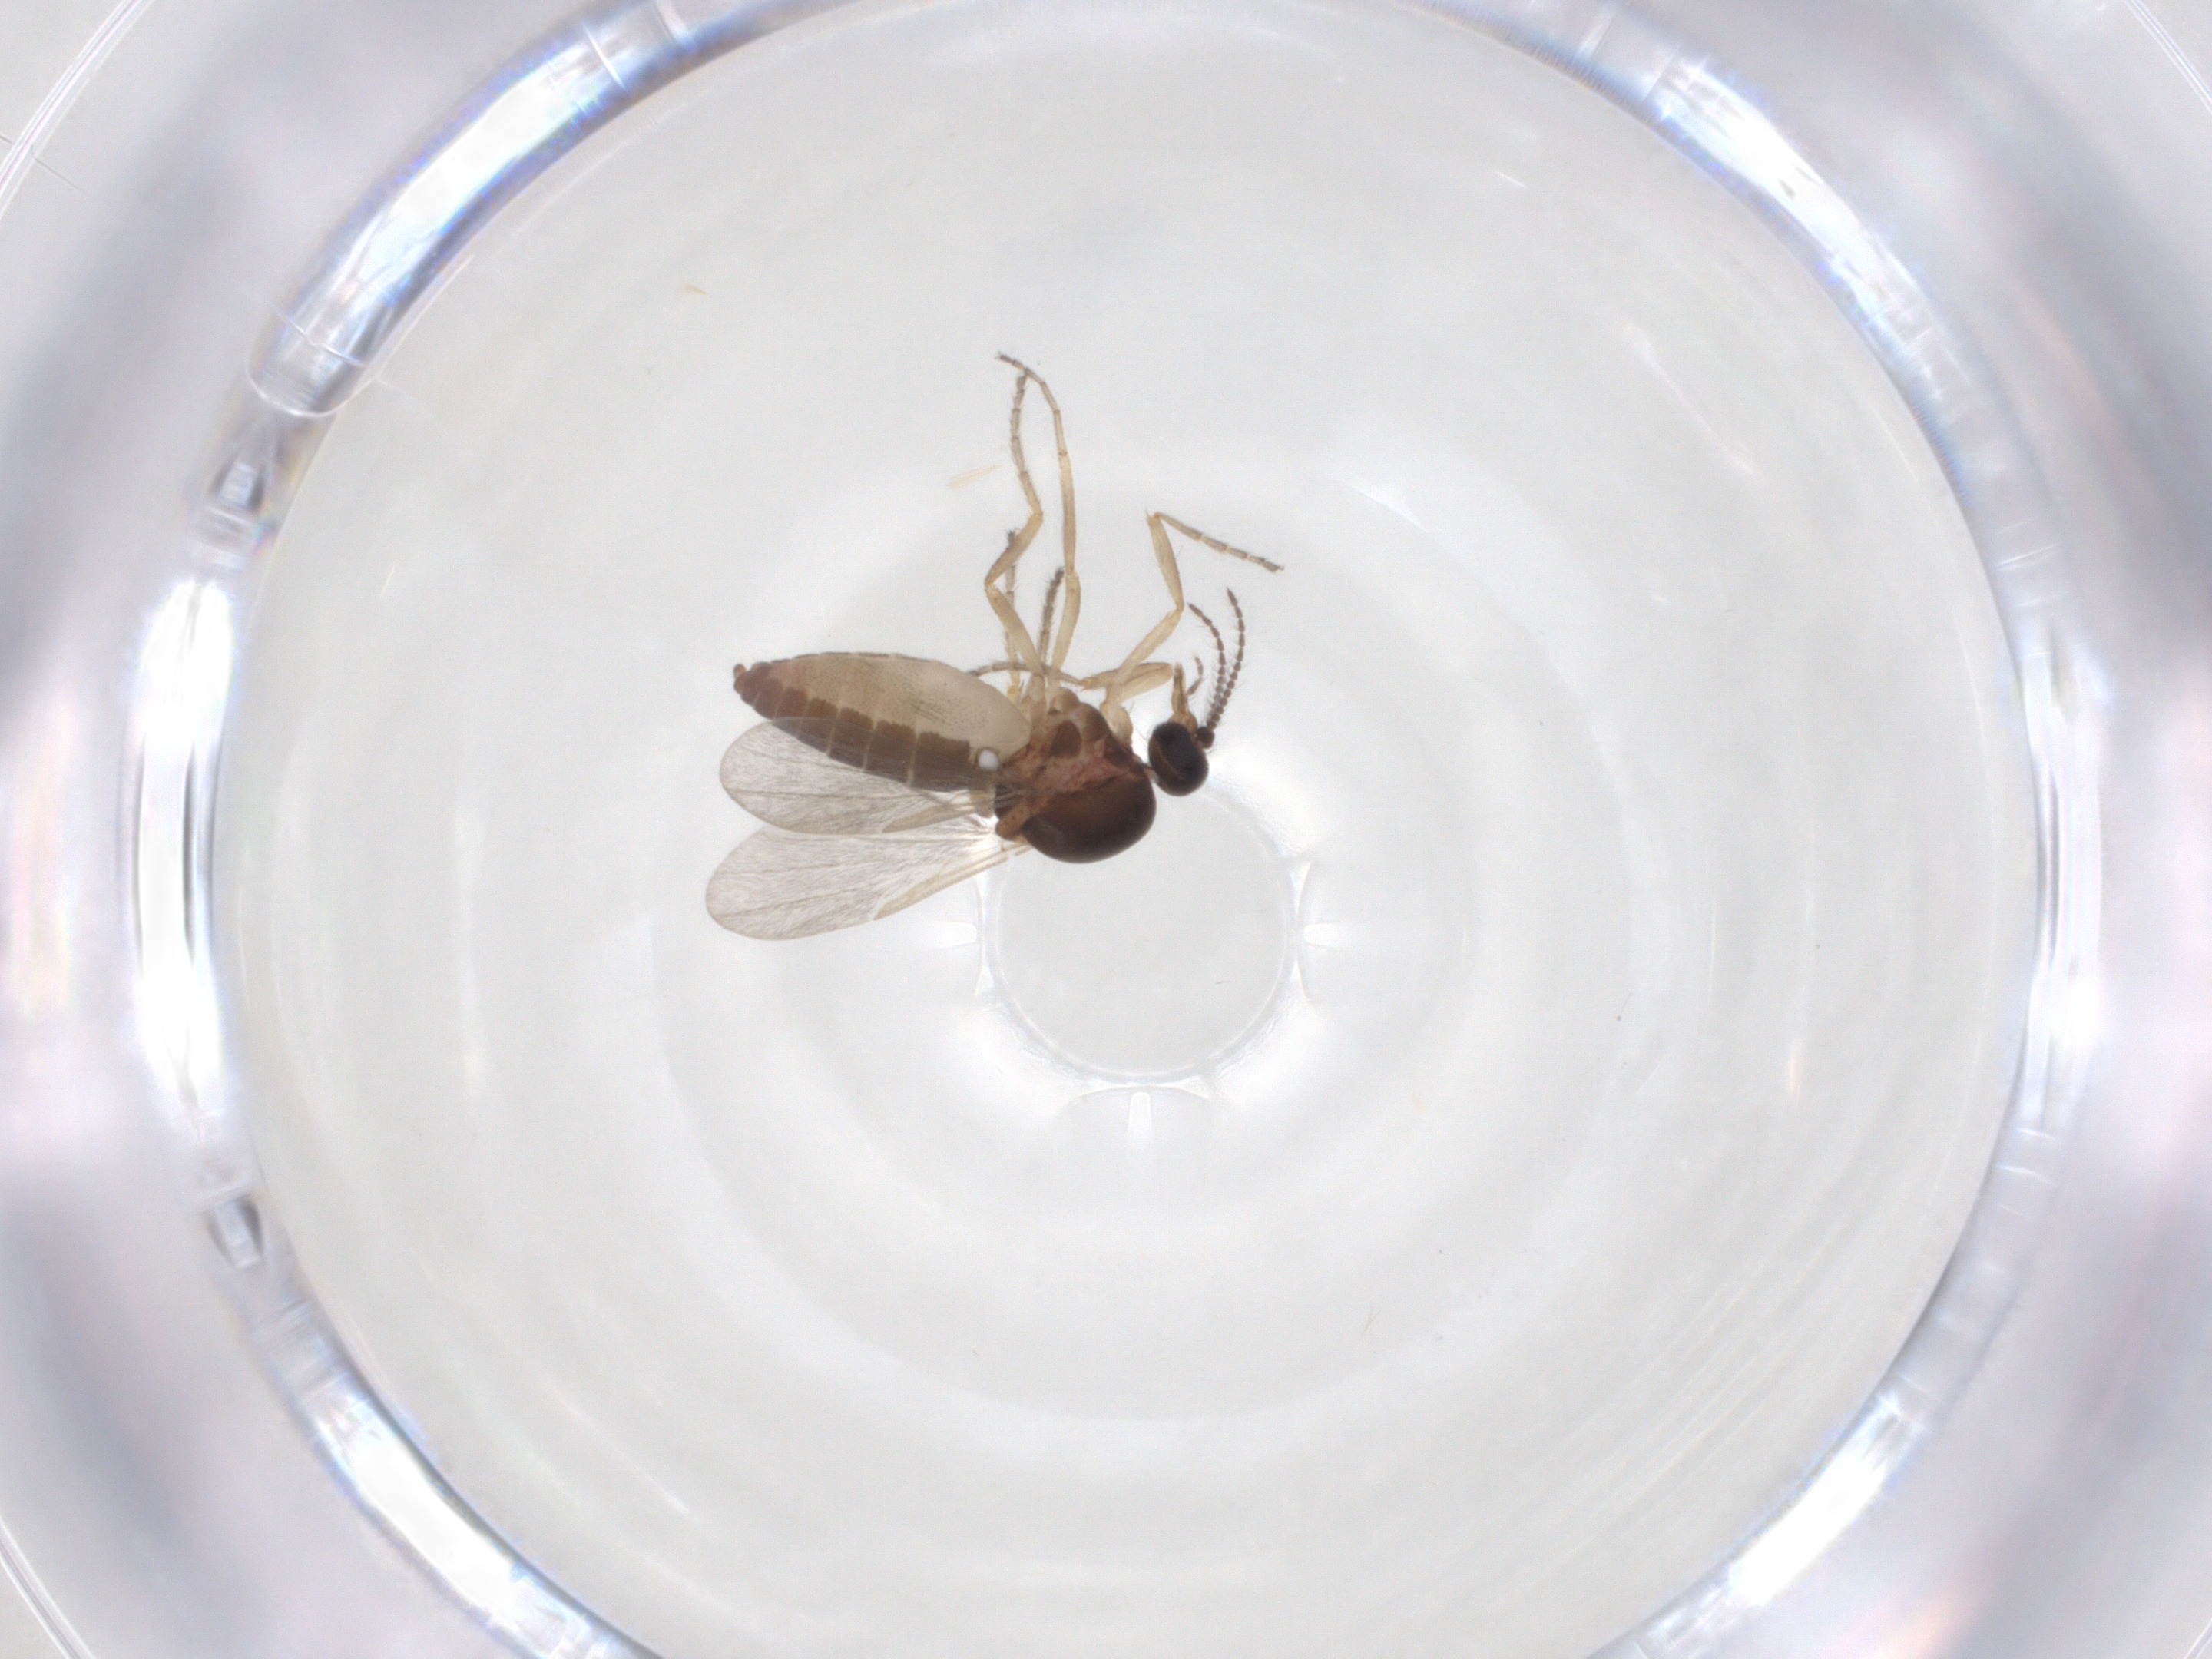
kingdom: Animalia
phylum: Arthropoda
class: Insecta
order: Diptera
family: Ceratopogonidae
